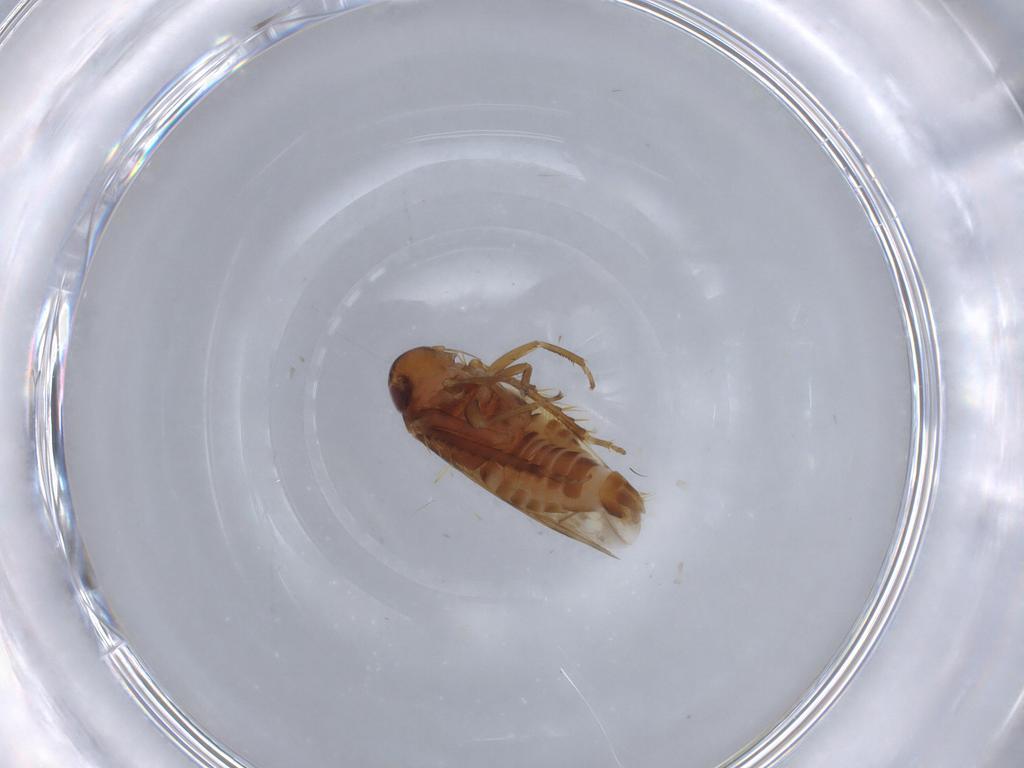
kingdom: Animalia
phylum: Arthropoda
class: Insecta
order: Hemiptera
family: Cicadellidae
